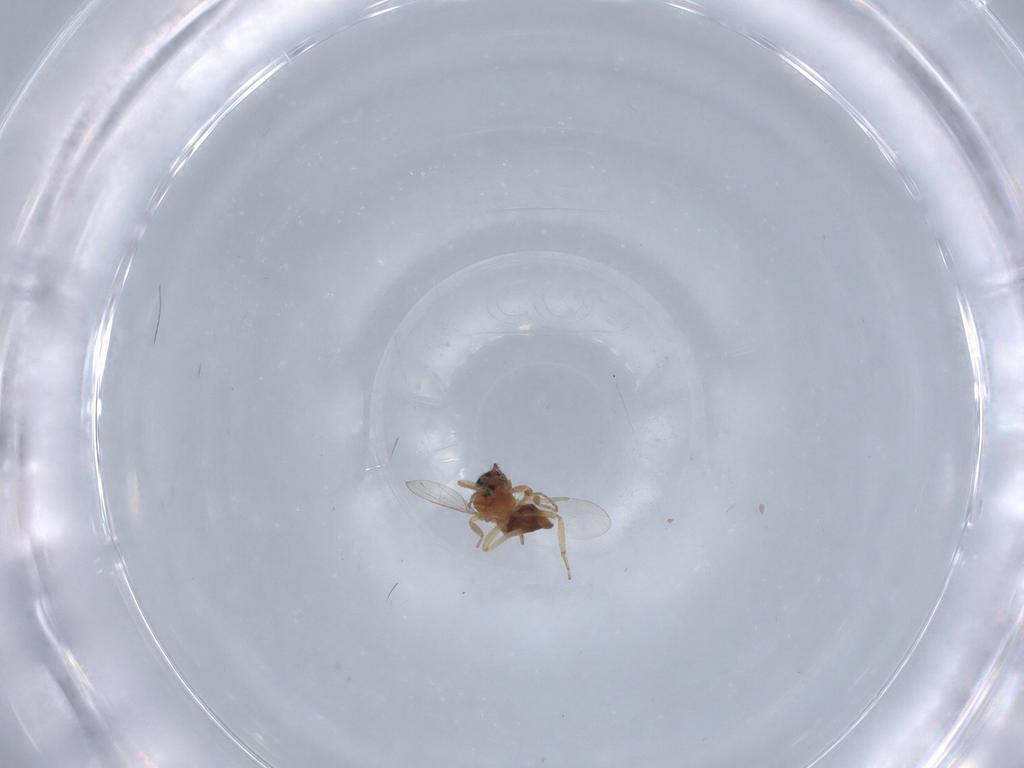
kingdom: Animalia
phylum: Arthropoda
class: Insecta
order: Diptera
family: Ceratopogonidae
